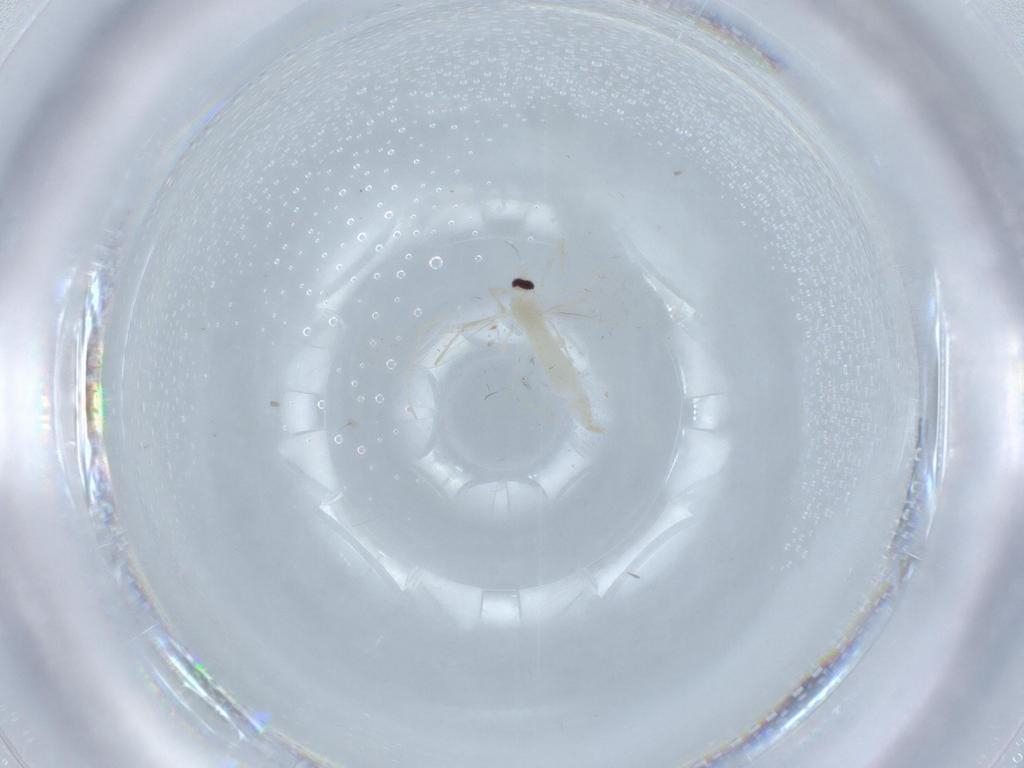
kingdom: Animalia
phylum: Arthropoda
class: Insecta
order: Diptera
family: Cecidomyiidae
